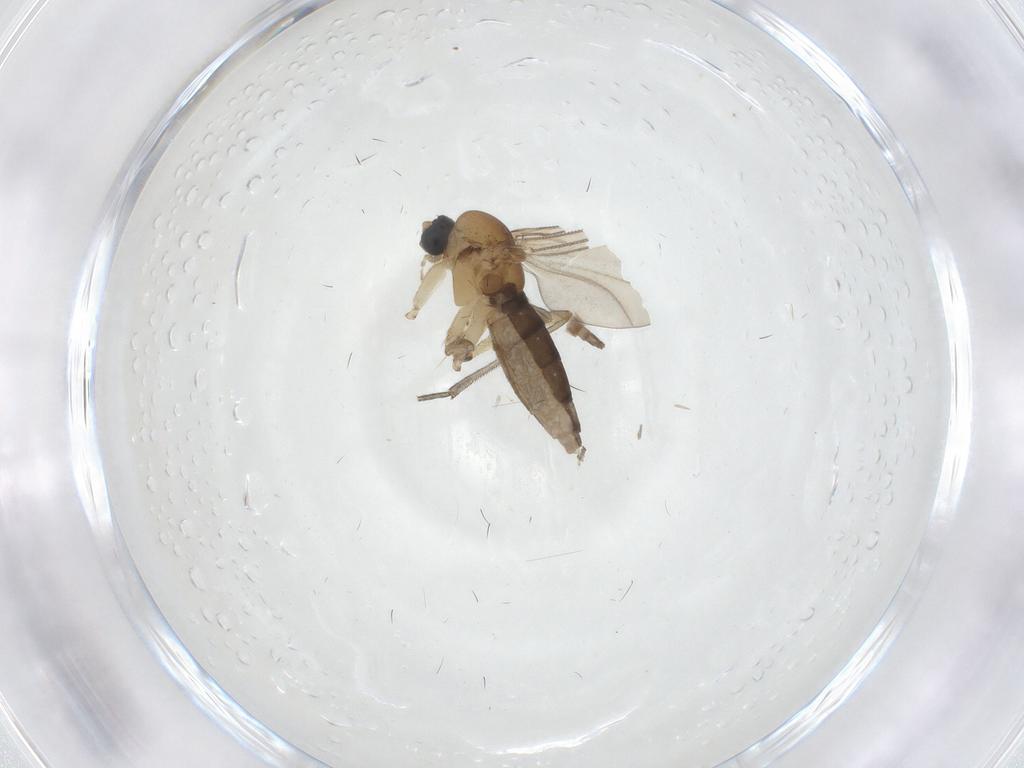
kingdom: Animalia
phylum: Arthropoda
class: Insecta
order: Diptera
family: Sciaridae
